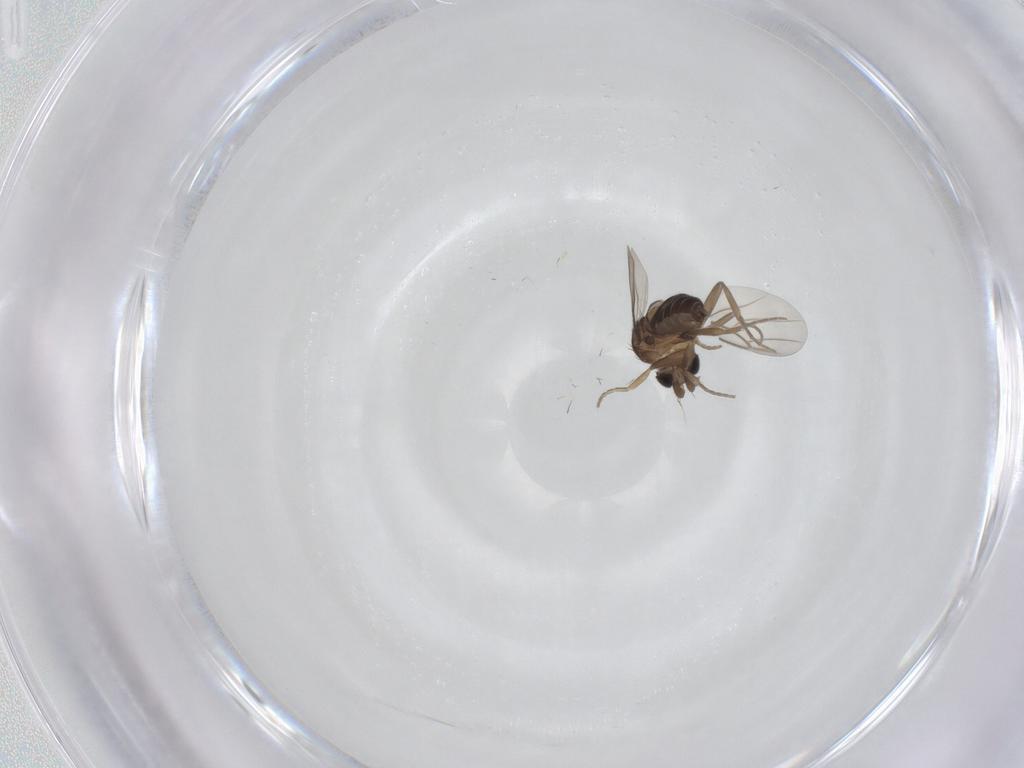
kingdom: Animalia
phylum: Arthropoda
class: Insecta
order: Diptera
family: Phoridae
